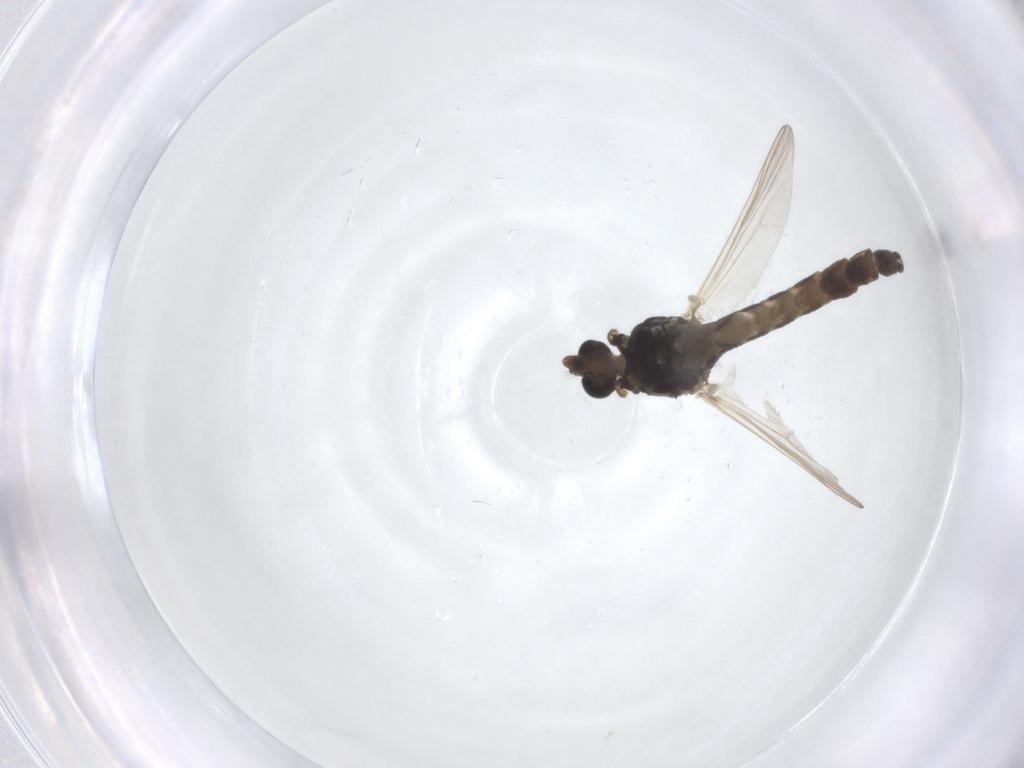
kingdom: Animalia
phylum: Arthropoda
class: Insecta
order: Diptera
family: Chironomidae
